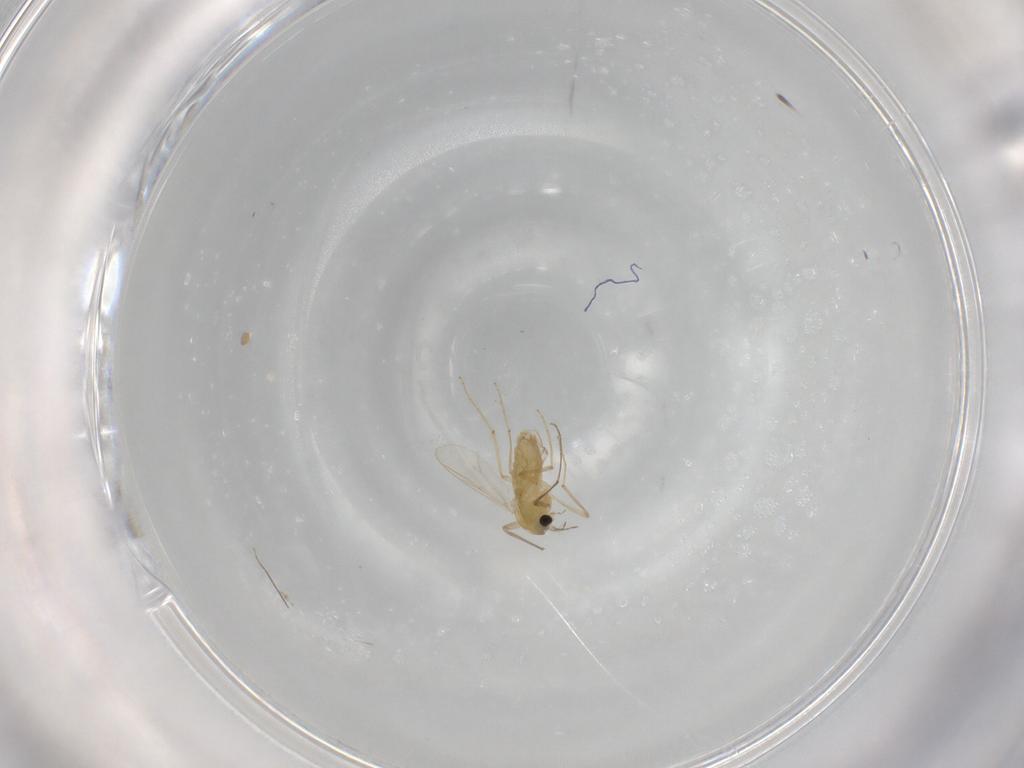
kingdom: Animalia
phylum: Arthropoda
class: Insecta
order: Diptera
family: Chironomidae
